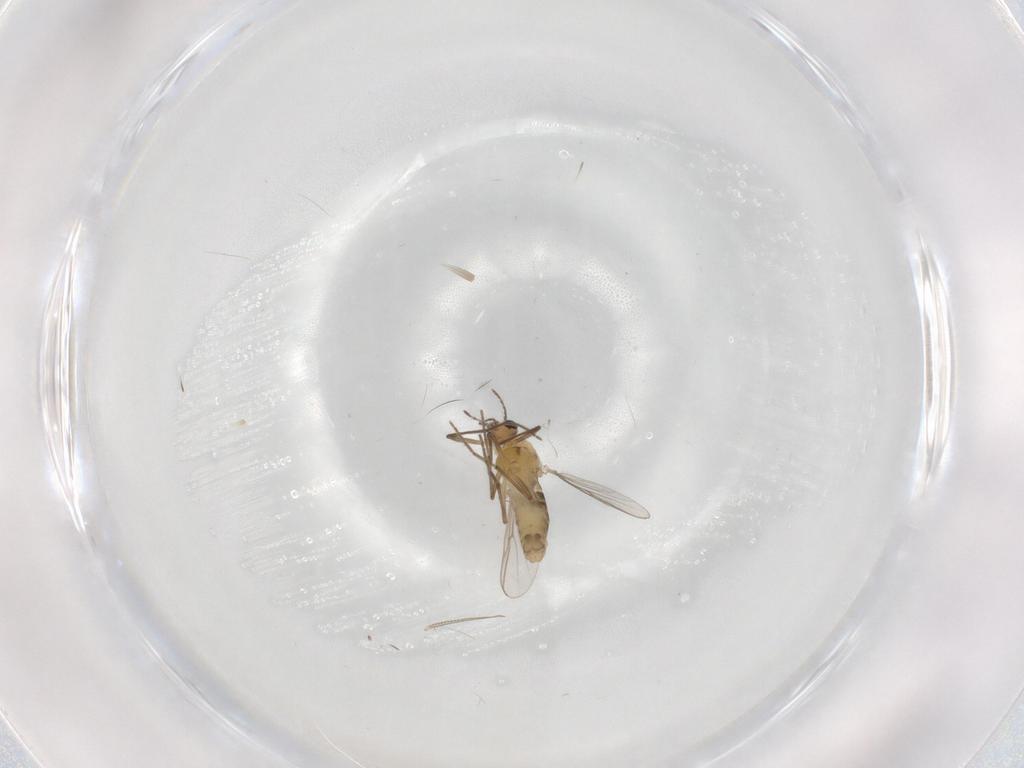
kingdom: Animalia
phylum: Arthropoda
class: Insecta
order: Diptera
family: Chironomidae
